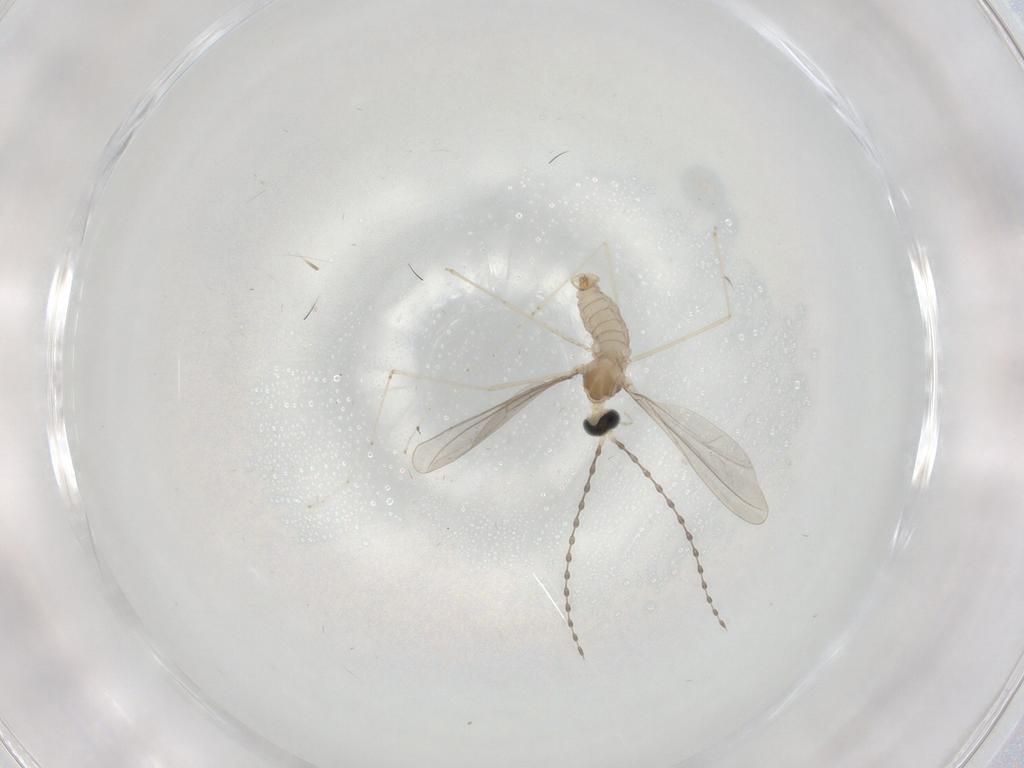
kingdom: Animalia
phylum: Arthropoda
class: Insecta
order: Diptera
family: Cecidomyiidae
